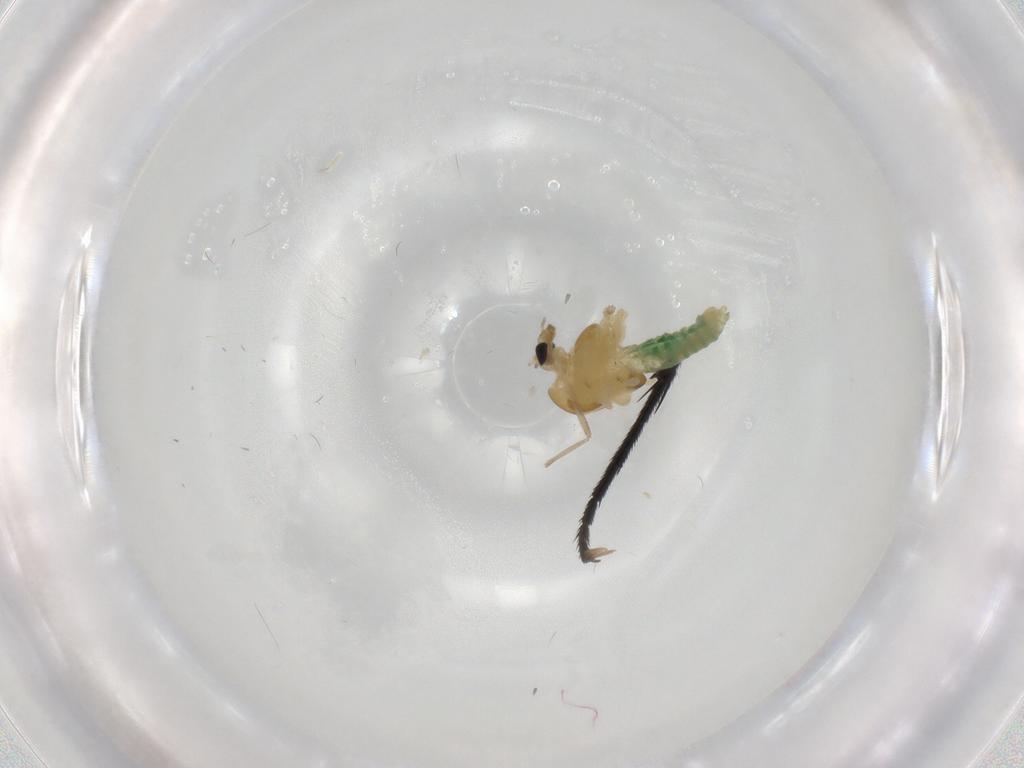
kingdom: Animalia
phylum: Arthropoda
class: Insecta
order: Diptera
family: Chironomidae
